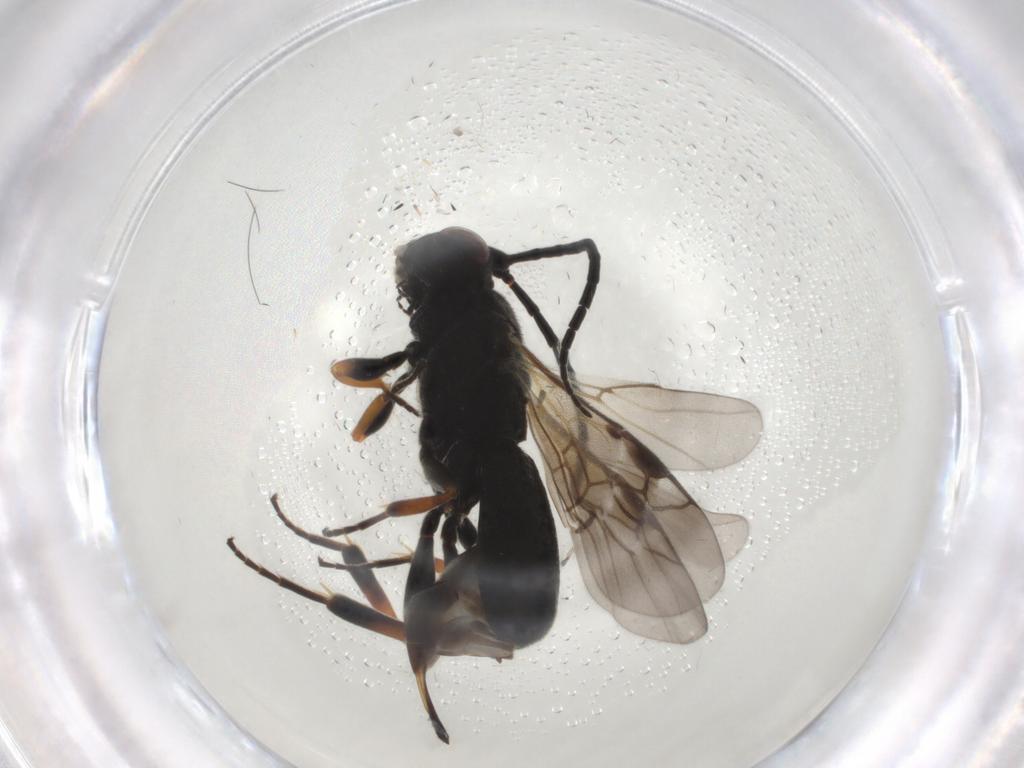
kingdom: Animalia
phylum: Arthropoda
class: Insecta
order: Hymenoptera
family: Braconidae
